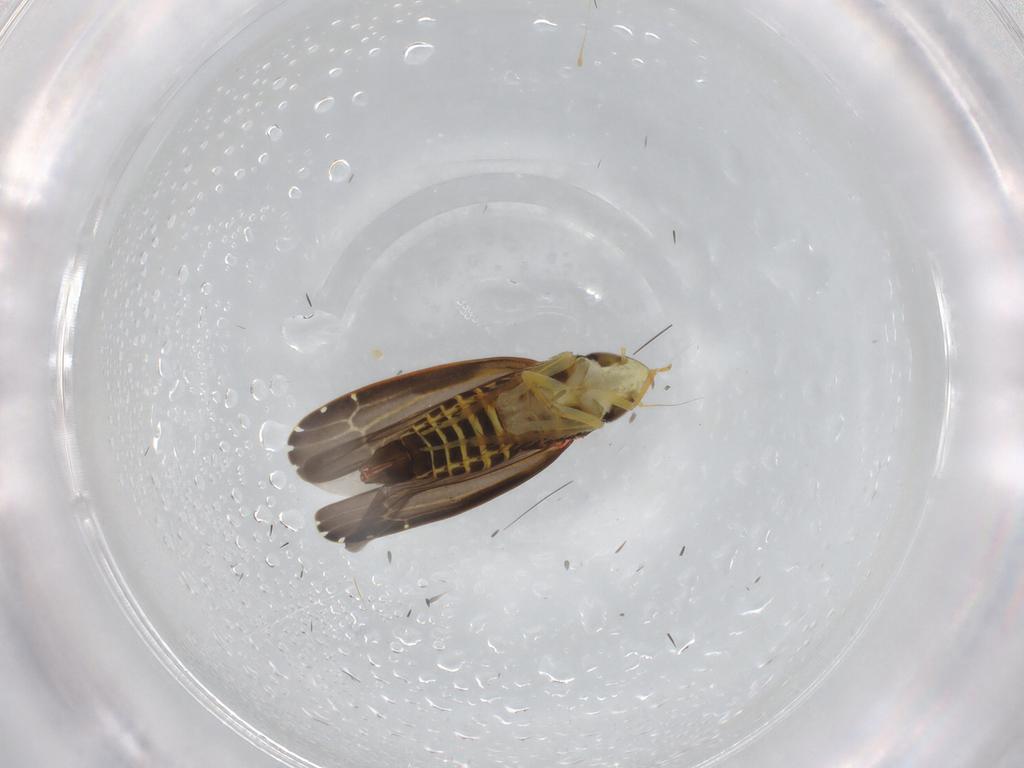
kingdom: Animalia
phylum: Arthropoda
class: Insecta
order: Hemiptera
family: Cicadellidae
